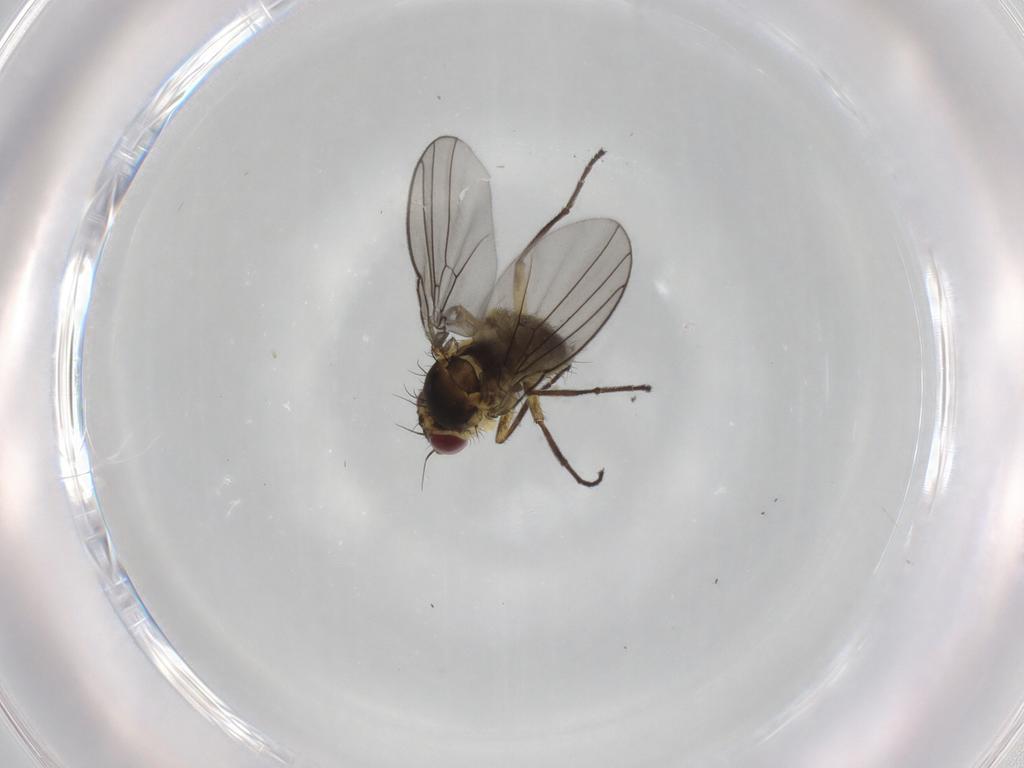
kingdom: Animalia
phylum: Arthropoda
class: Insecta
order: Diptera
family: Agromyzidae
